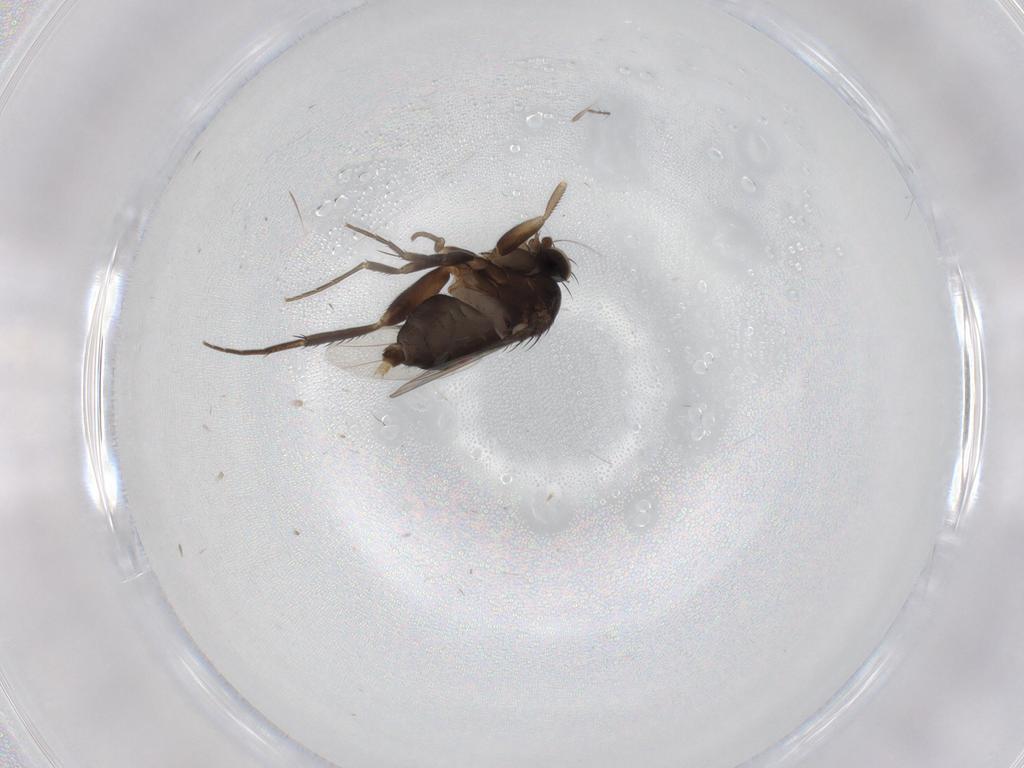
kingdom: Animalia
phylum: Arthropoda
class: Insecta
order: Diptera
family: Phoridae
